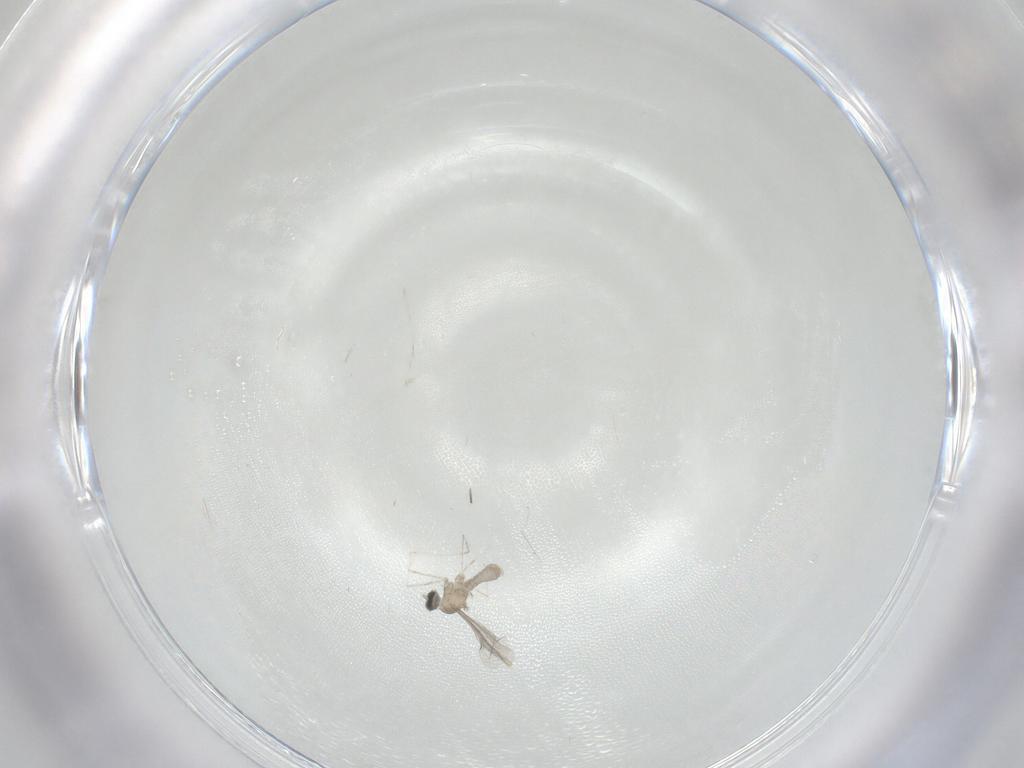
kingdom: Animalia
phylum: Arthropoda
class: Insecta
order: Diptera
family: Cecidomyiidae
